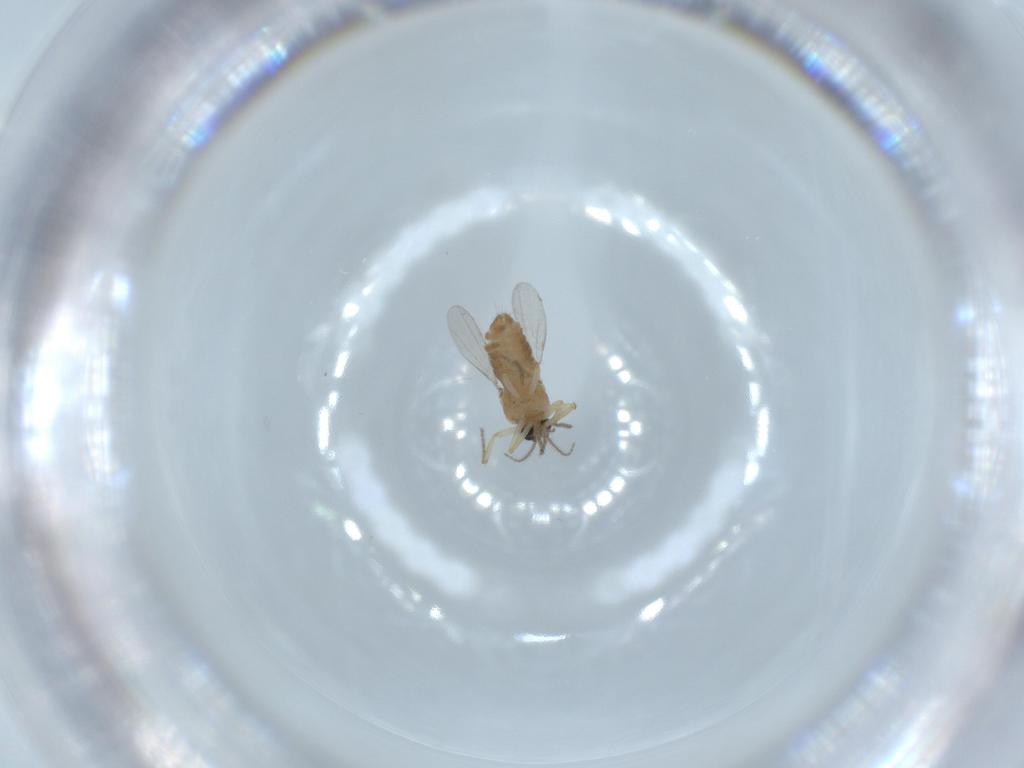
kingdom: Animalia
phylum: Arthropoda
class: Insecta
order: Diptera
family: Ceratopogonidae
